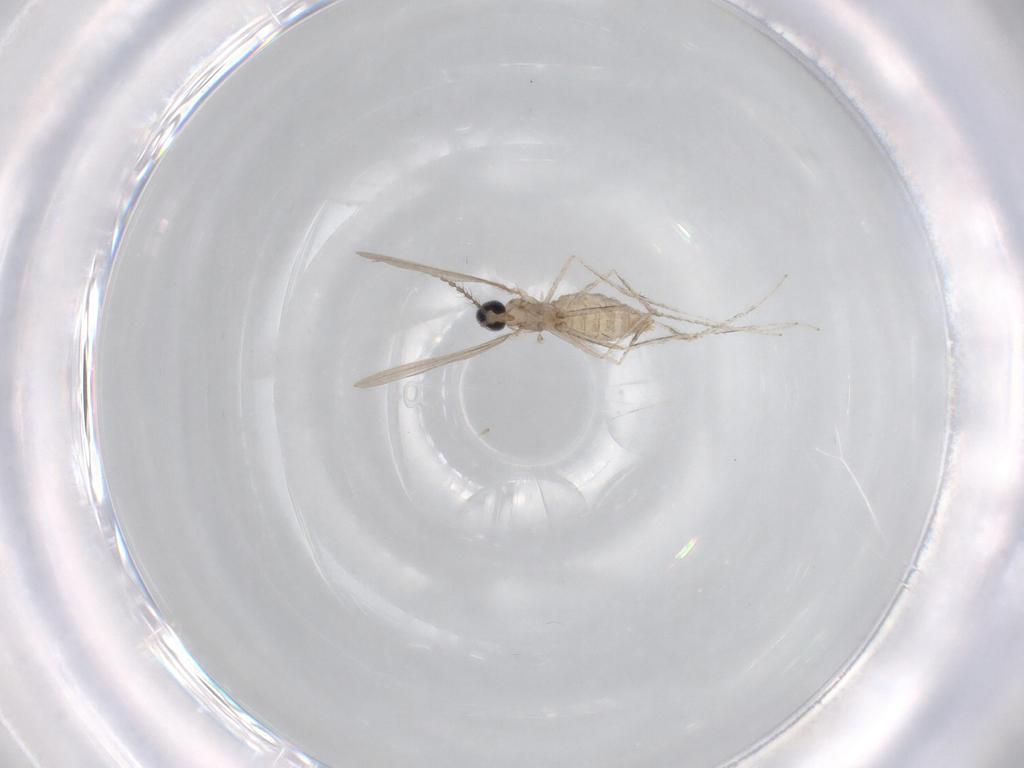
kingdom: Animalia
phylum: Arthropoda
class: Insecta
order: Diptera
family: Cecidomyiidae
